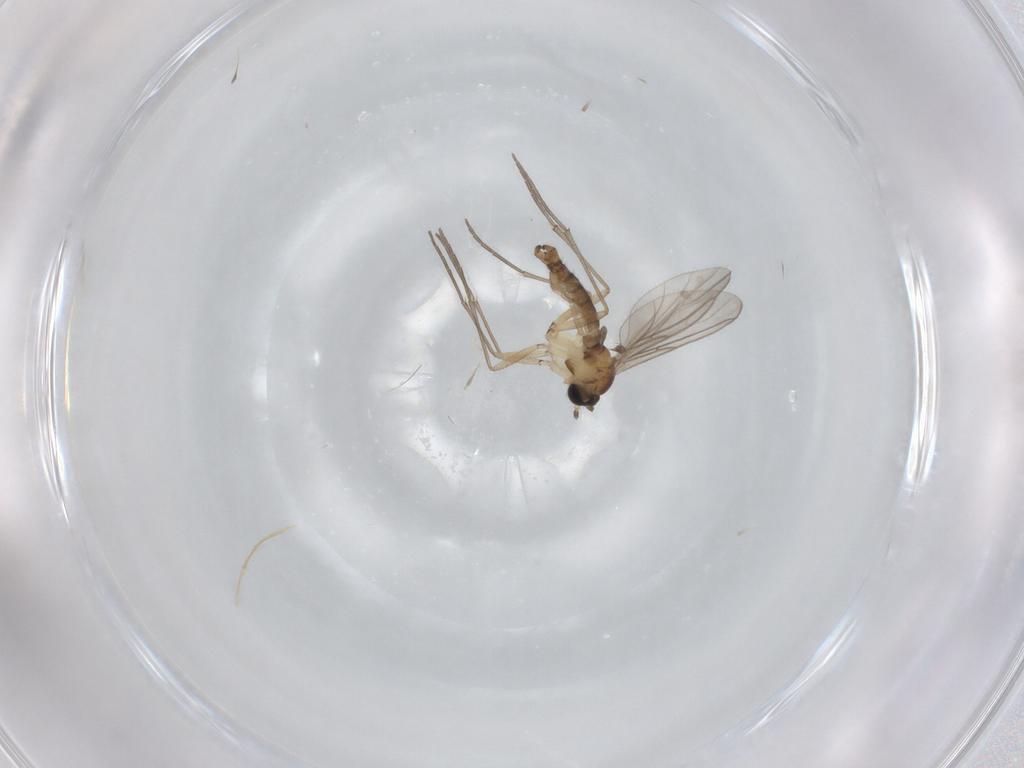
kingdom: Animalia
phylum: Arthropoda
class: Insecta
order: Diptera
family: Sciaridae
